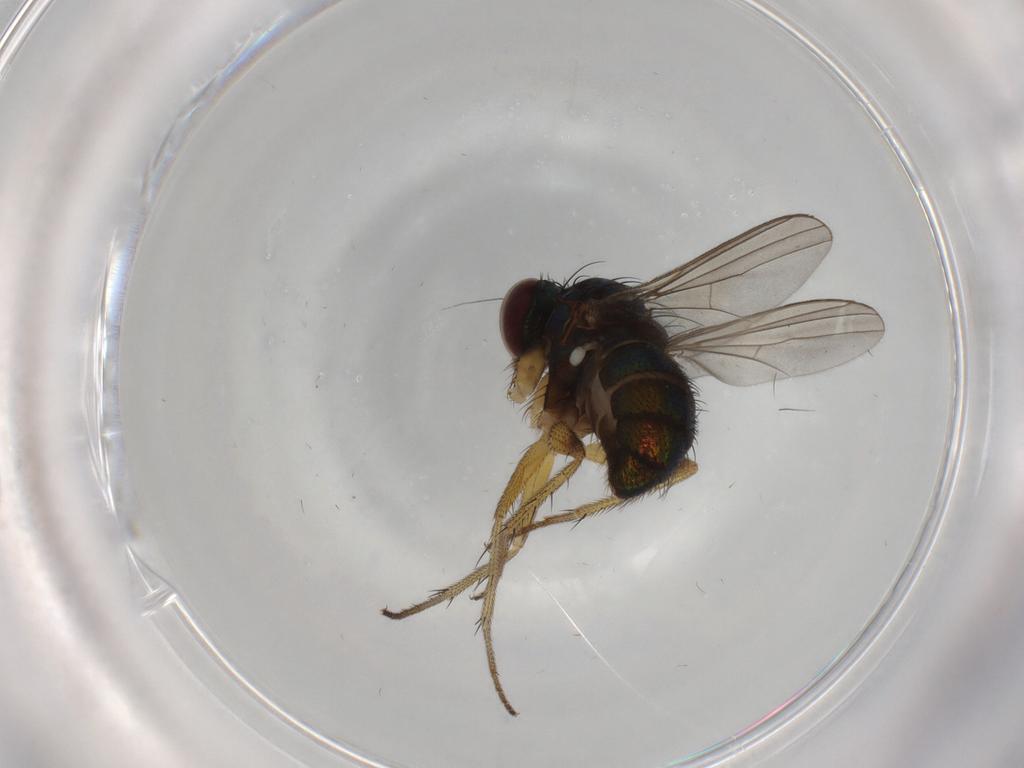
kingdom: Animalia
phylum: Arthropoda
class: Insecta
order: Diptera
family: Dolichopodidae
